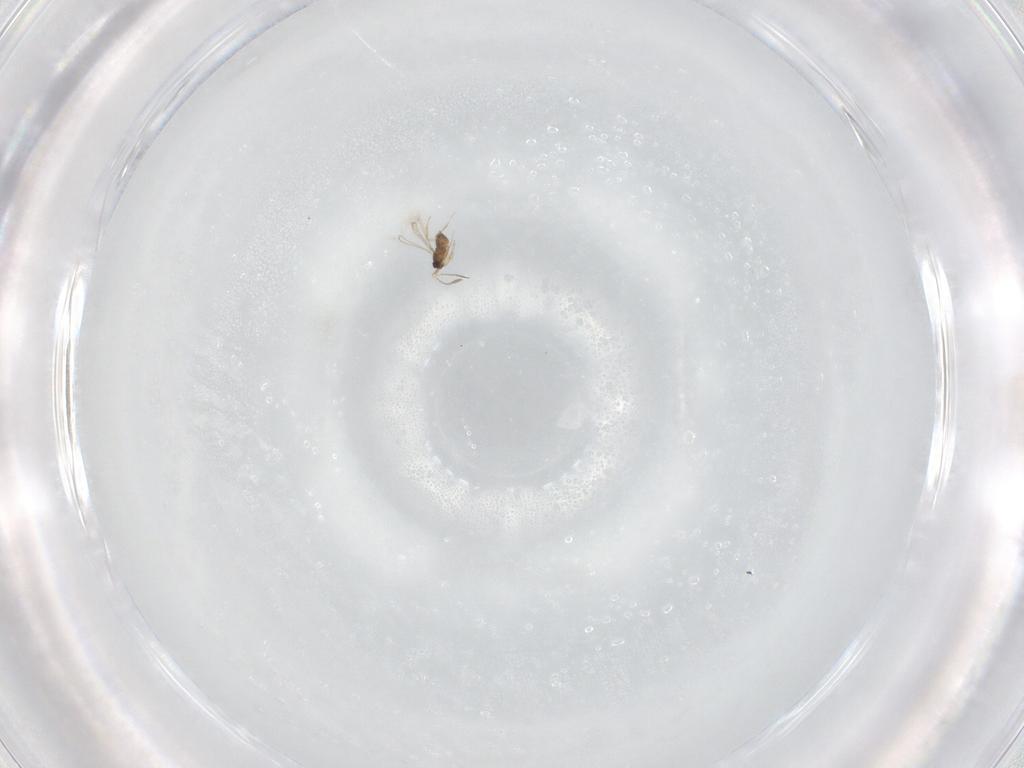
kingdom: Animalia
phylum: Arthropoda
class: Insecta
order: Hymenoptera
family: Mymaridae
